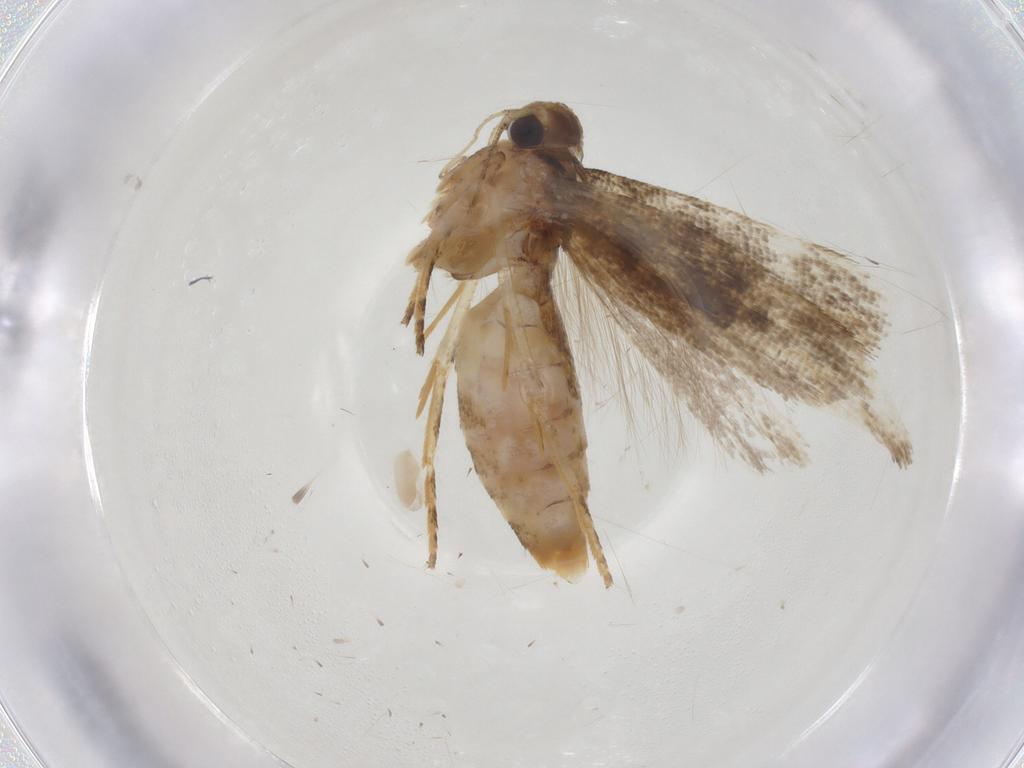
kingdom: Animalia
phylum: Arthropoda
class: Insecta
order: Lepidoptera
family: Gelechiidae
